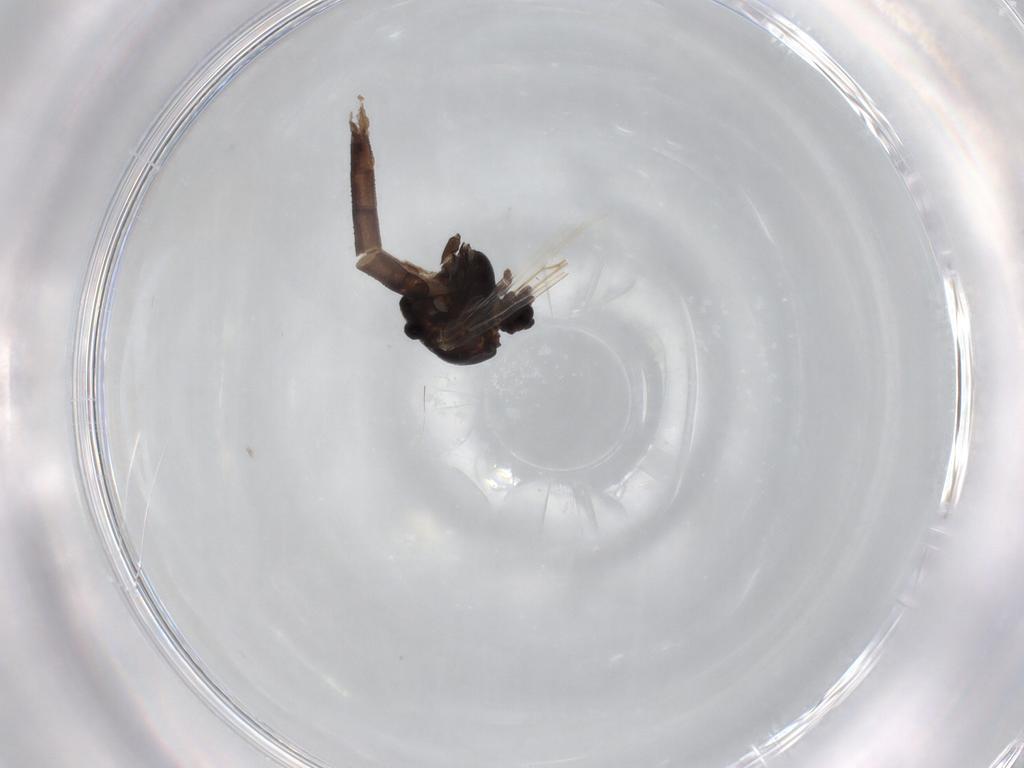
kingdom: Animalia
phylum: Arthropoda
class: Insecta
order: Diptera
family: Chironomidae
